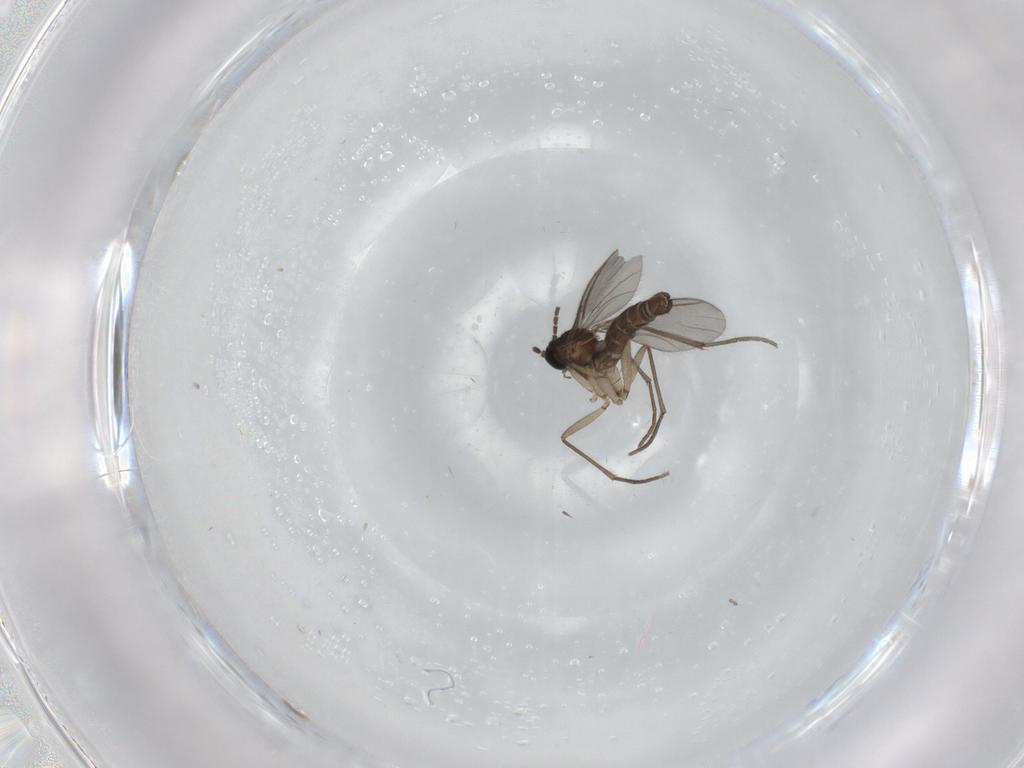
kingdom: Animalia
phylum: Arthropoda
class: Insecta
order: Diptera
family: Sciaridae
